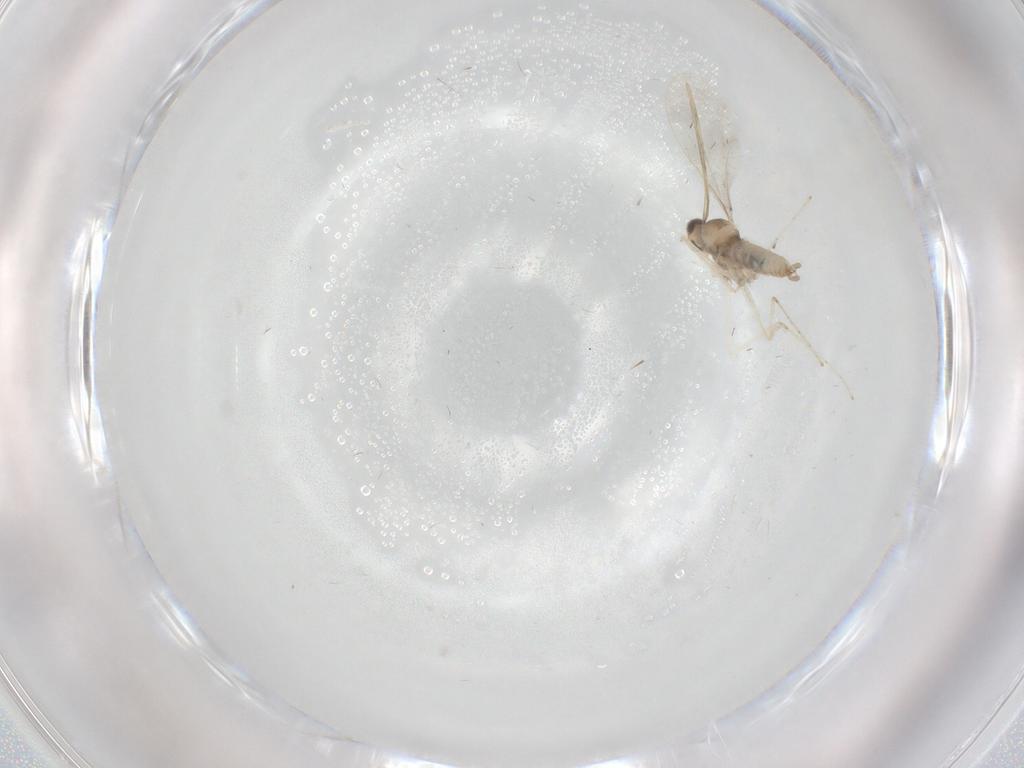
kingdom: Animalia
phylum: Arthropoda
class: Insecta
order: Diptera
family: Cecidomyiidae
